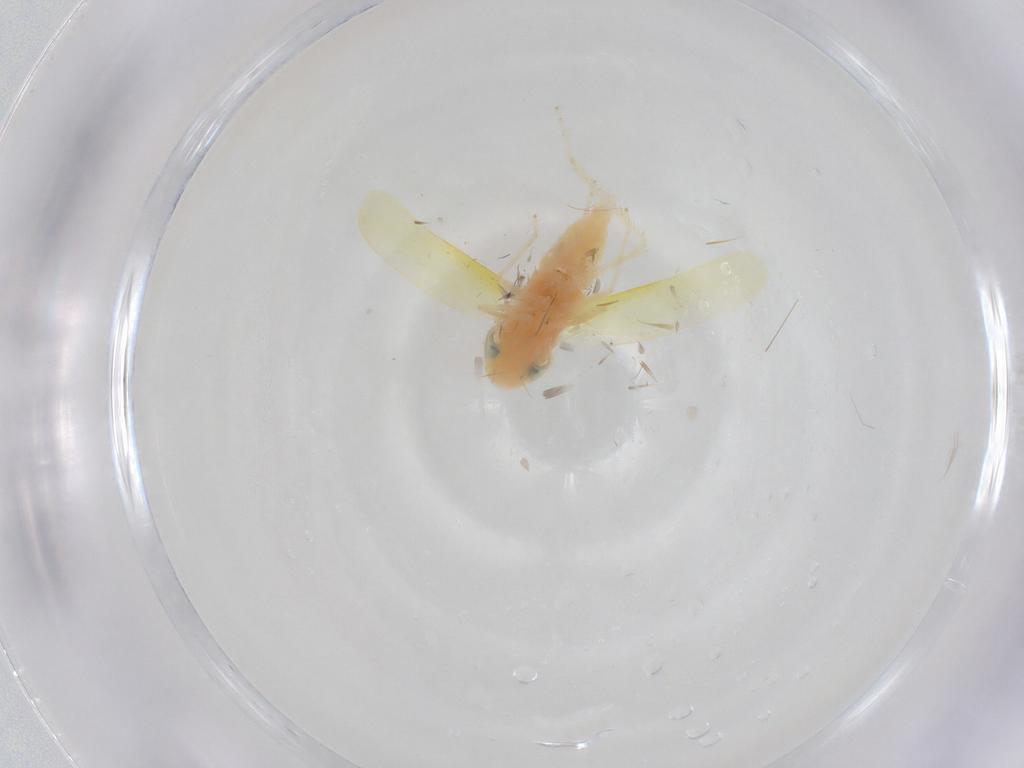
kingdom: Animalia
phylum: Arthropoda
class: Insecta
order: Hemiptera
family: Cicadellidae
